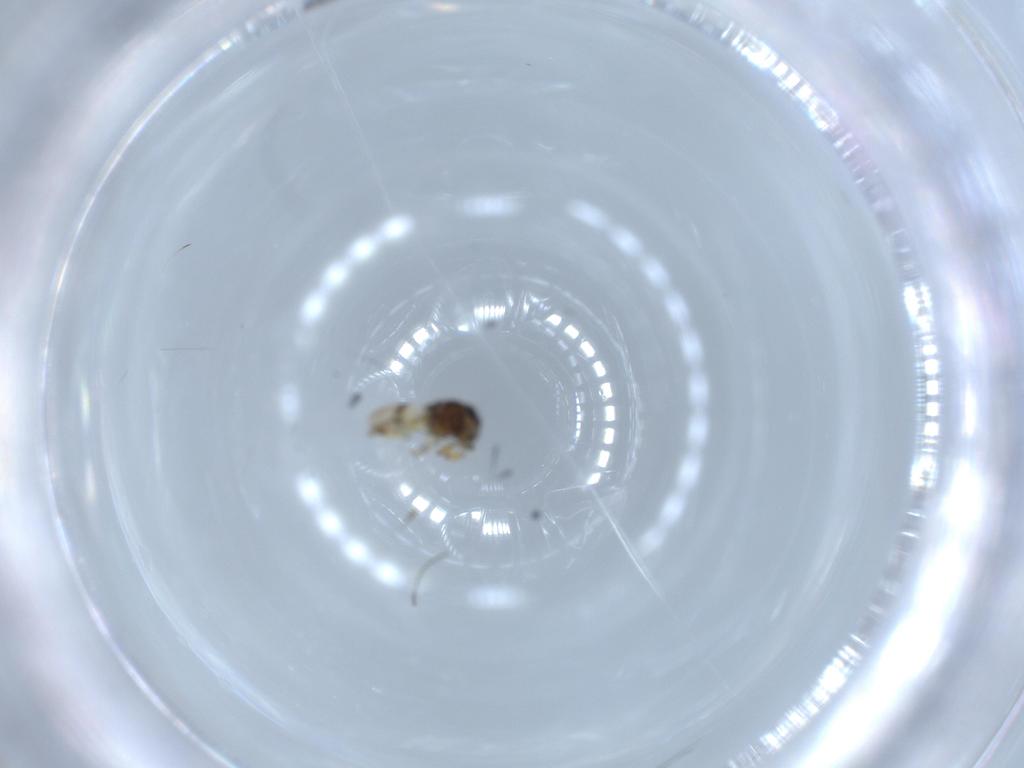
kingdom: Animalia
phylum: Arthropoda
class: Insecta
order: Hymenoptera
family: Scelionidae
